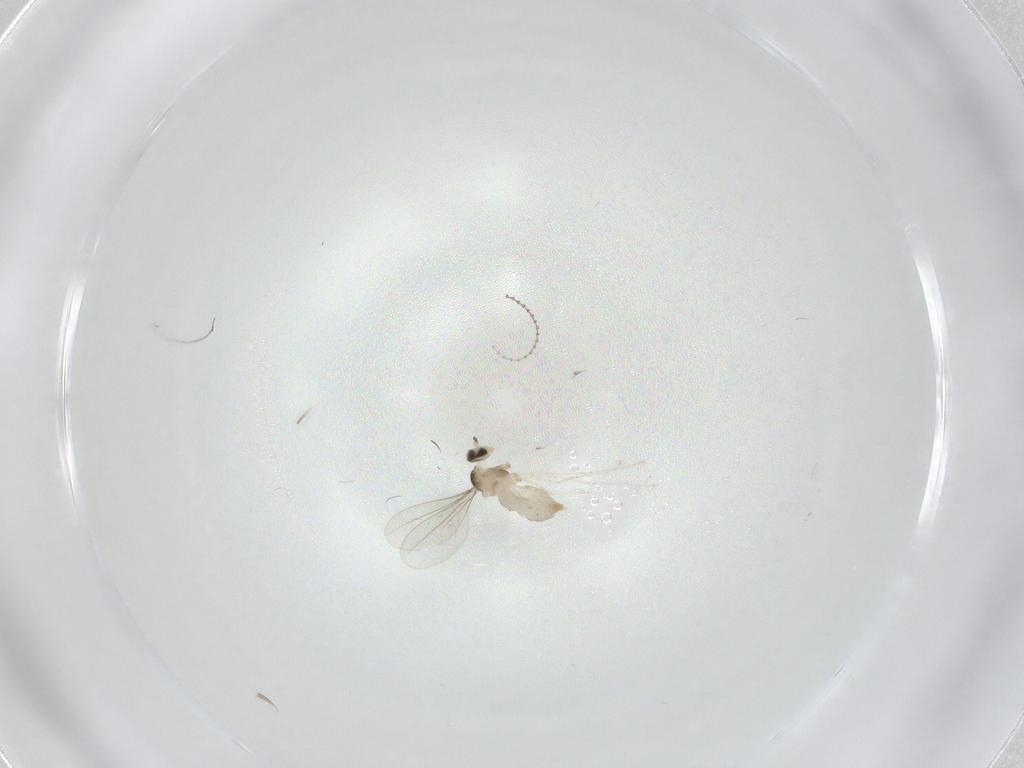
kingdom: Animalia
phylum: Arthropoda
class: Insecta
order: Diptera
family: Cecidomyiidae
